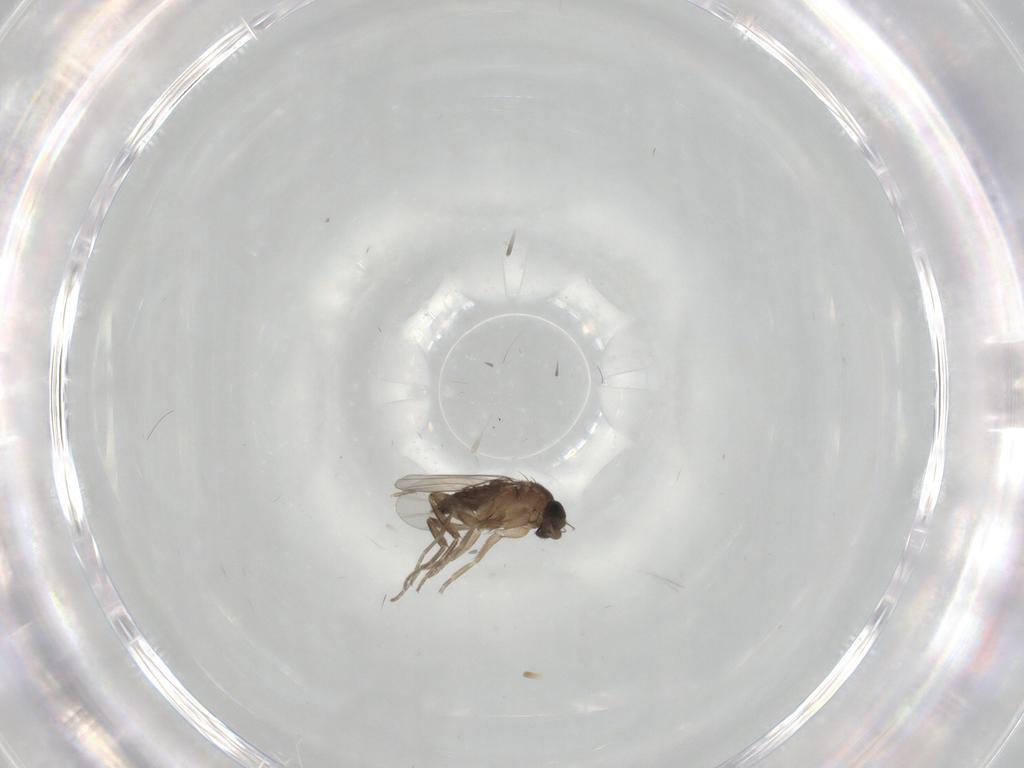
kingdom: Animalia
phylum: Arthropoda
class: Insecta
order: Diptera
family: Phoridae
